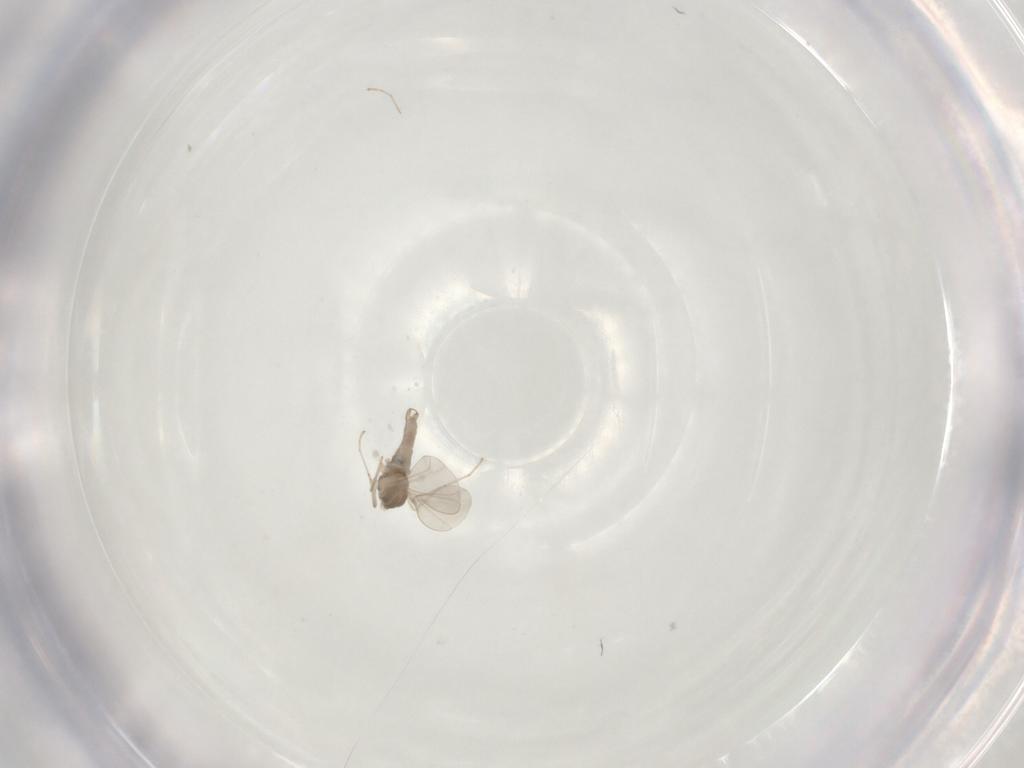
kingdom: Animalia
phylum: Arthropoda
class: Insecta
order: Diptera
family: Cecidomyiidae
